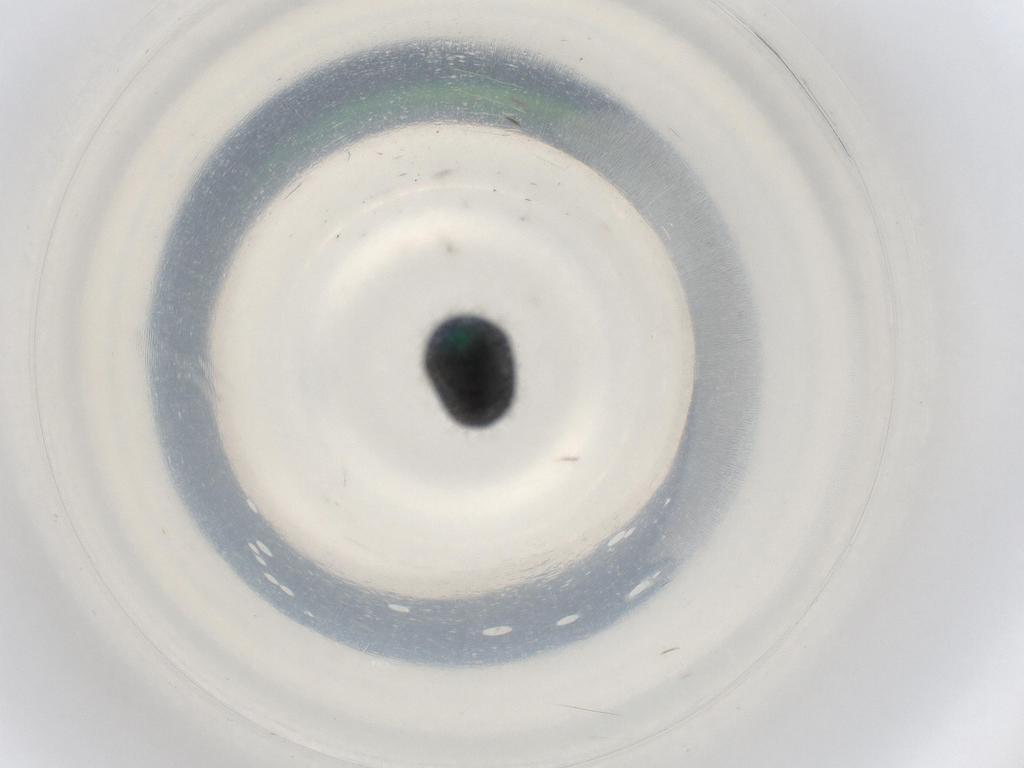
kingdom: Animalia
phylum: Arthropoda
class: Insecta
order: Coleoptera
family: Cybocephalidae
